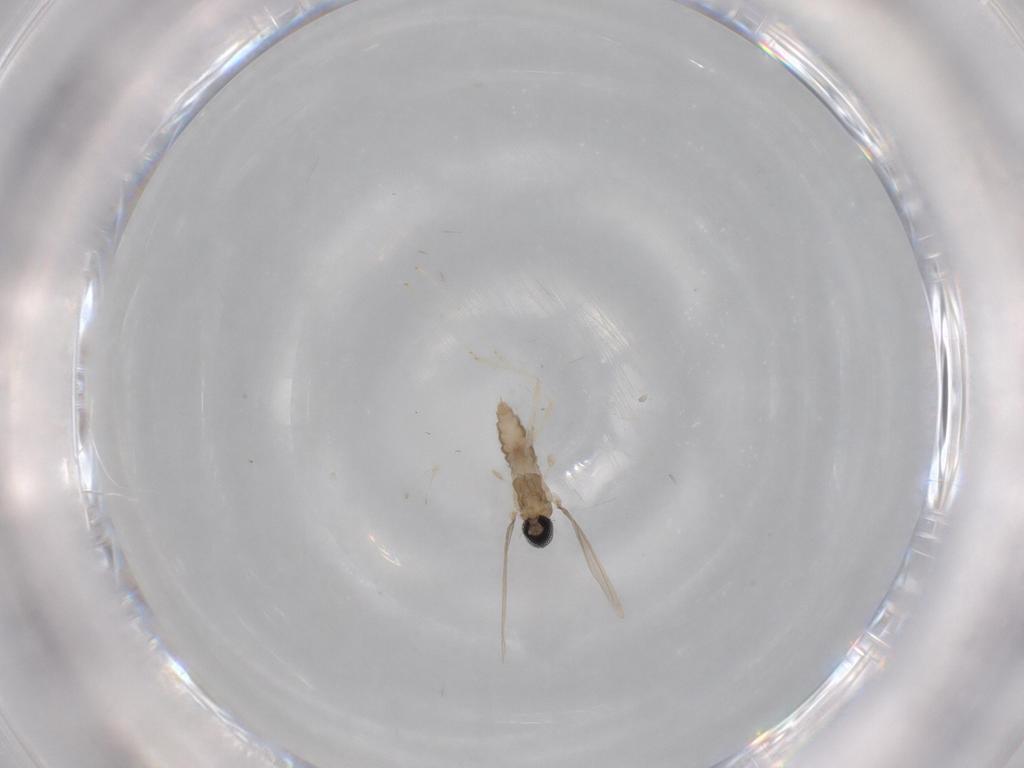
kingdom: Animalia
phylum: Arthropoda
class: Insecta
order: Diptera
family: Cecidomyiidae
